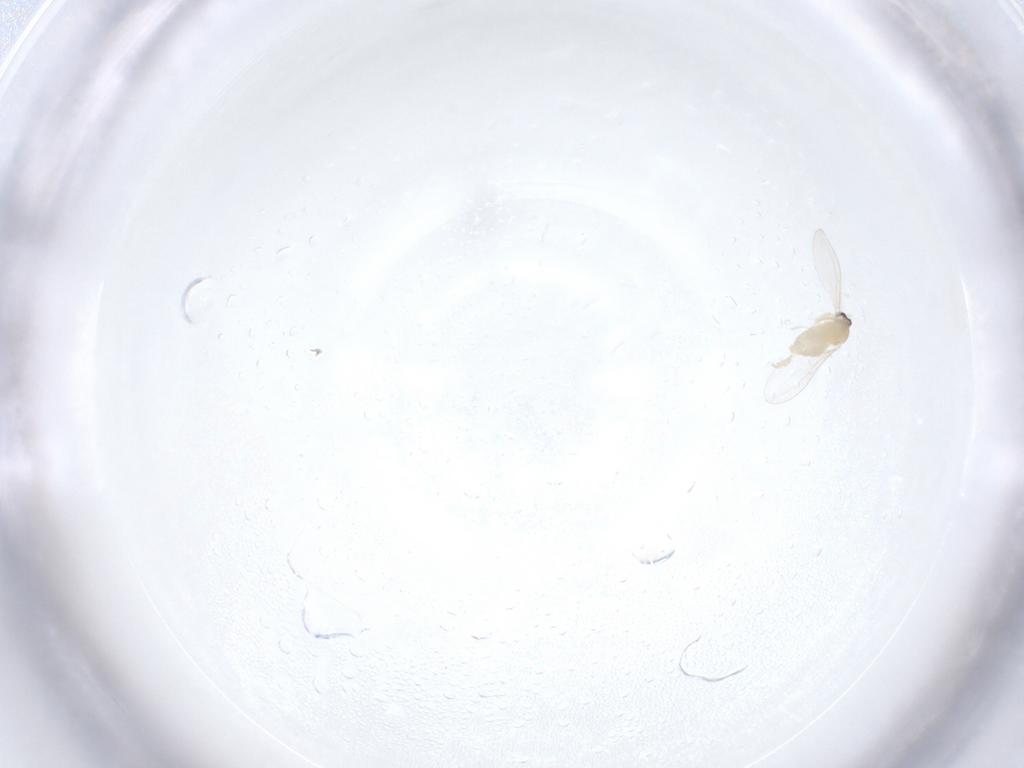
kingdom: Animalia
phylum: Arthropoda
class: Insecta
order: Diptera
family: Cecidomyiidae
